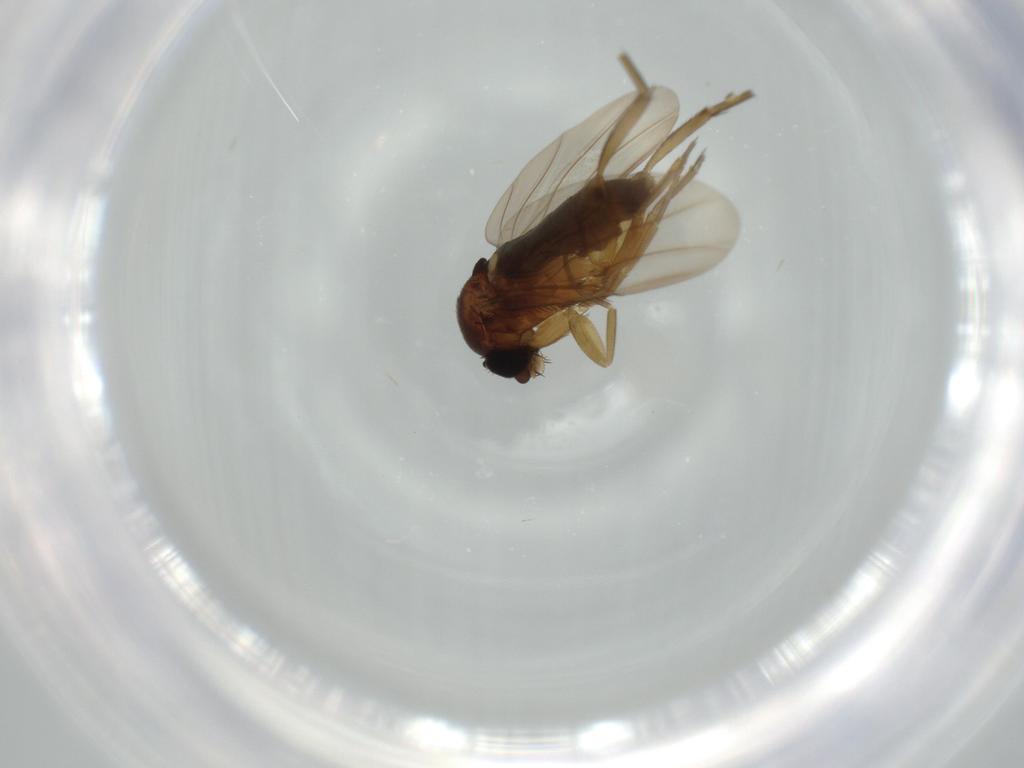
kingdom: Animalia
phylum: Arthropoda
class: Insecta
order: Diptera
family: Phoridae
